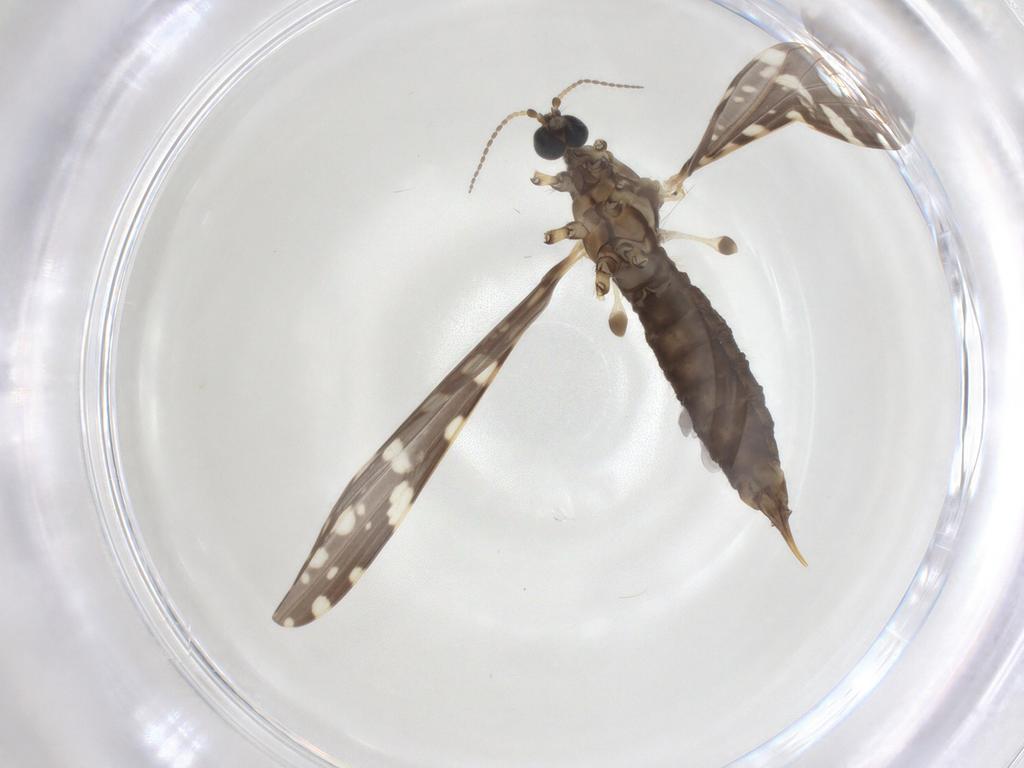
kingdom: Animalia
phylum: Arthropoda
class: Insecta
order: Diptera
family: Limoniidae
